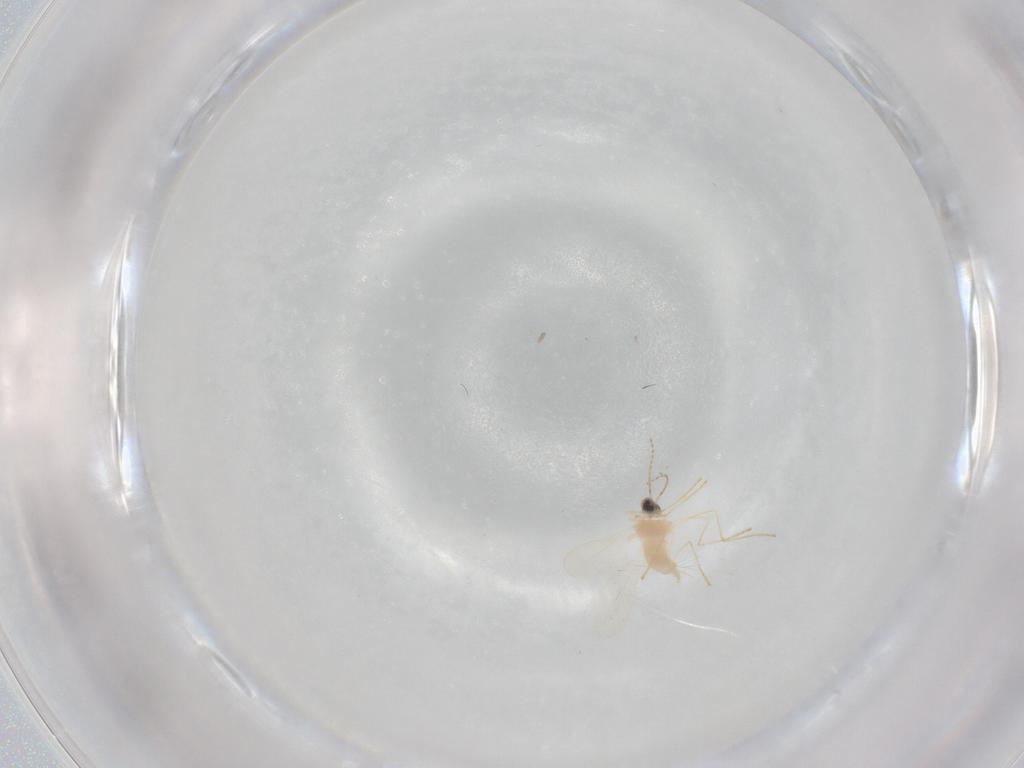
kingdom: Animalia
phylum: Arthropoda
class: Insecta
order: Diptera
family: Cecidomyiidae
